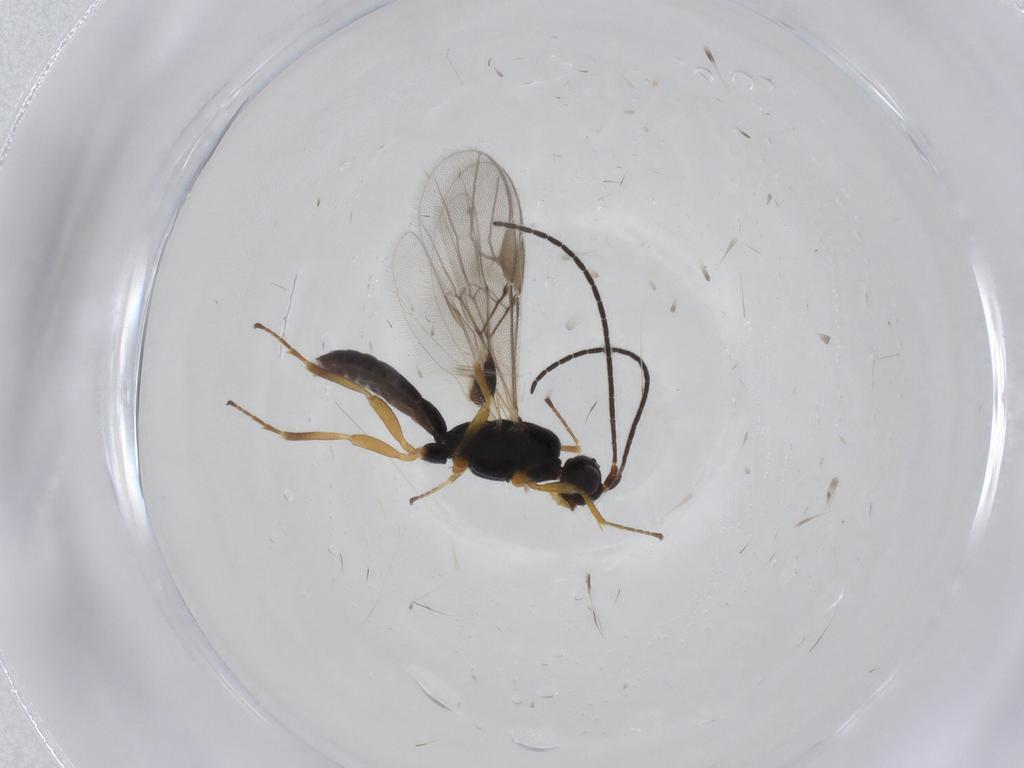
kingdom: Animalia
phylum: Arthropoda
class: Insecta
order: Hymenoptera
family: Braconidae
